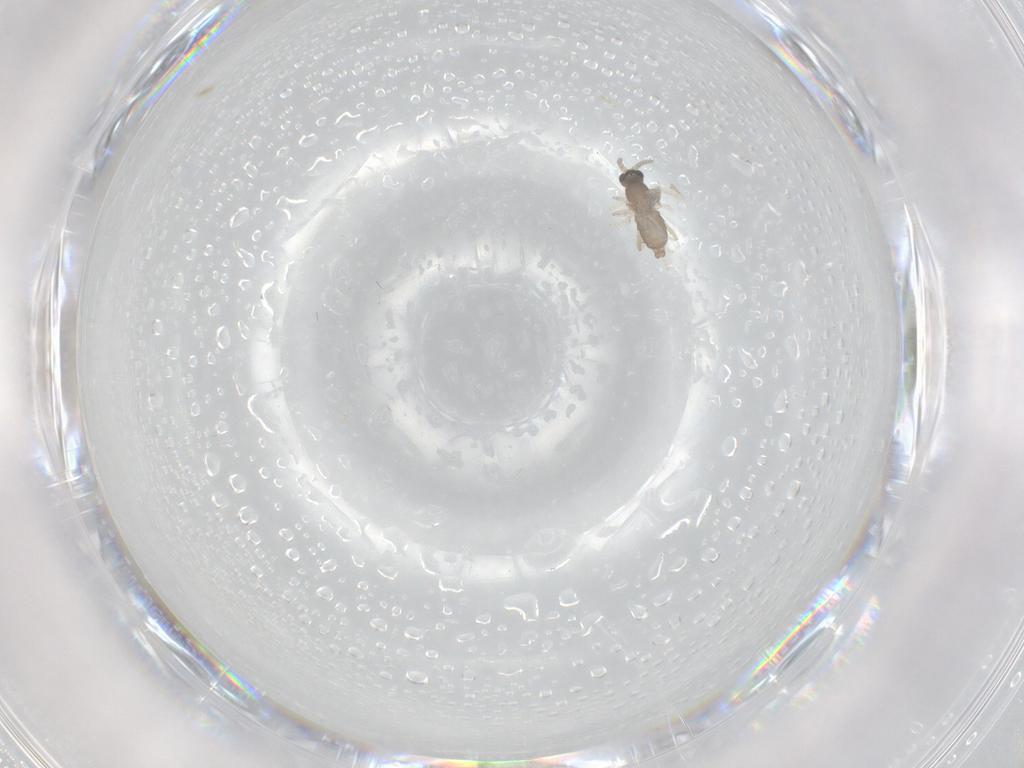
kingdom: Animalia
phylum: Arthropoda
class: Insecta
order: Diptera
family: Cecidomyiidae
